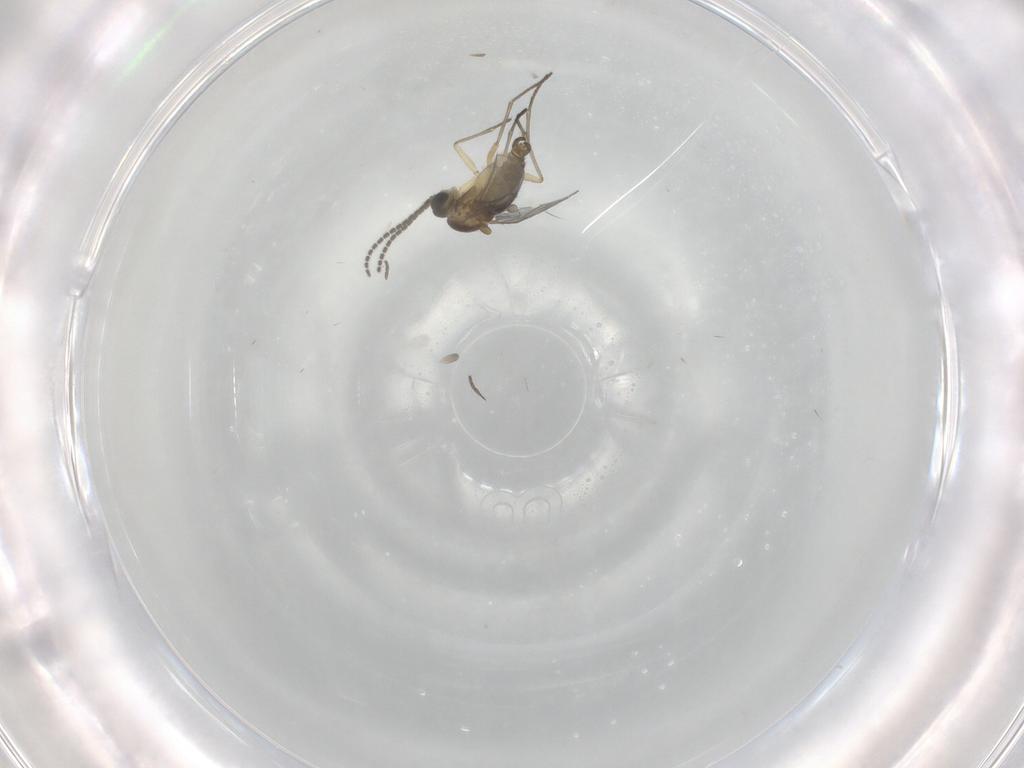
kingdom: Animalia
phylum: Arthropoda
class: Insecta
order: Diptera
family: Sciaridae
